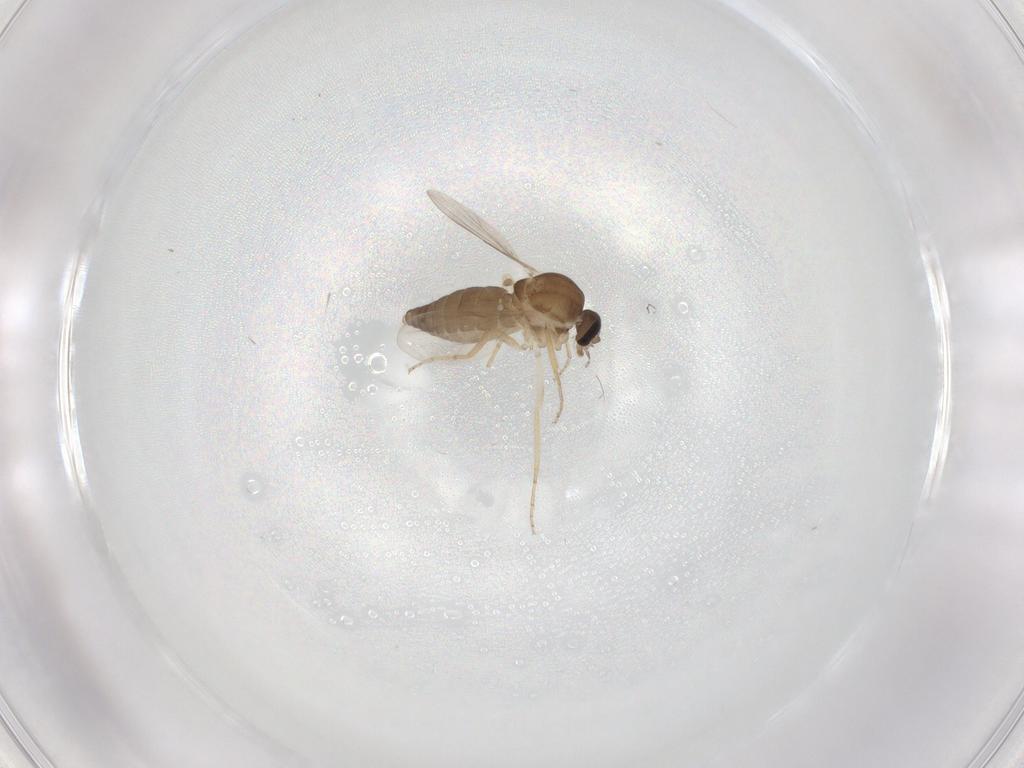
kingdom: Animalia
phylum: Arthropoda
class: Insecta
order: Diptera
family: Ceratopogonidae
